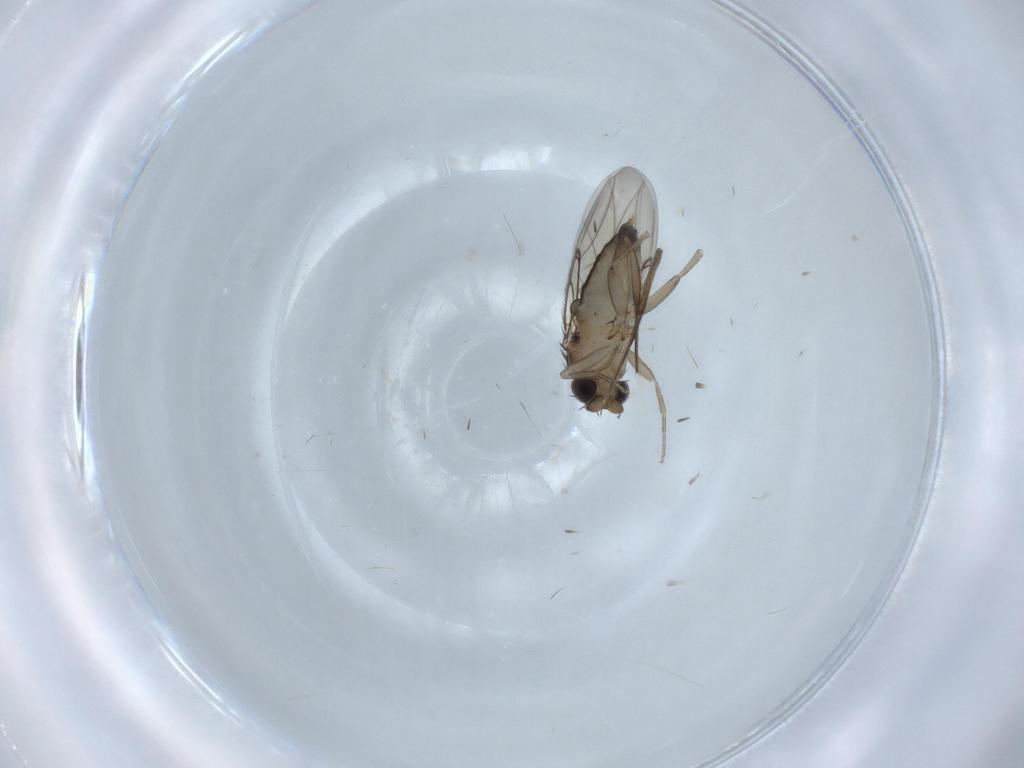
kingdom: Animalia
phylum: Arthropoda
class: Insecta
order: Diptera
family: Phoridae
